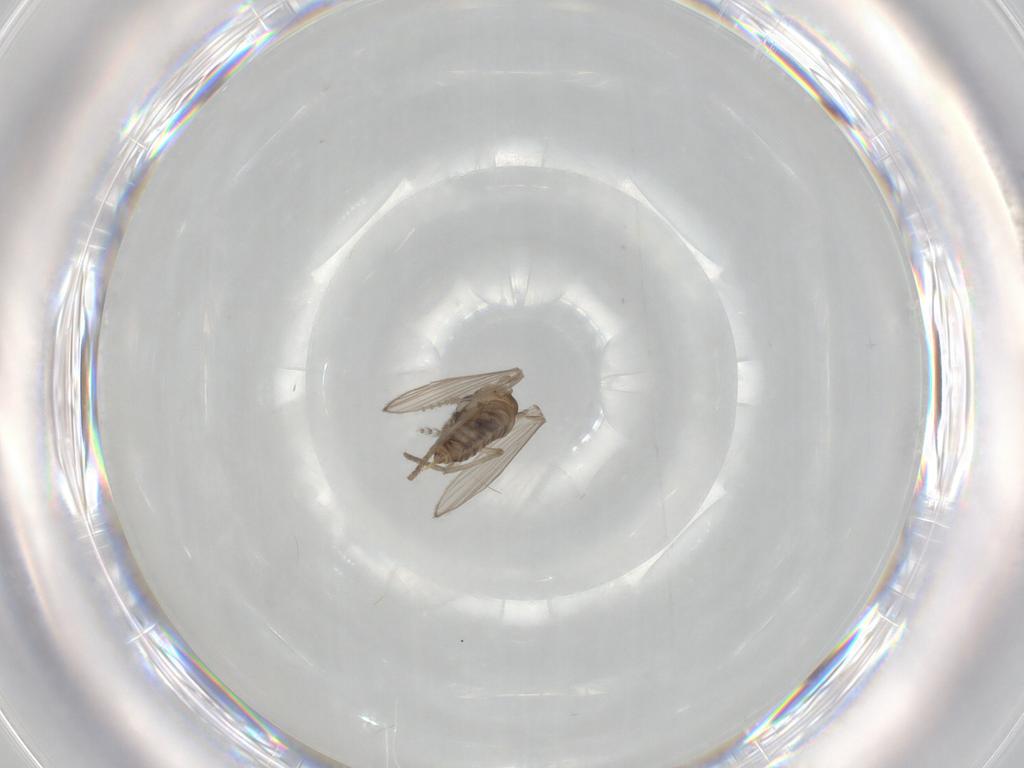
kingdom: Animalia
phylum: Arthropoda
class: Insecta
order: Diptera
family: Psychodidae
